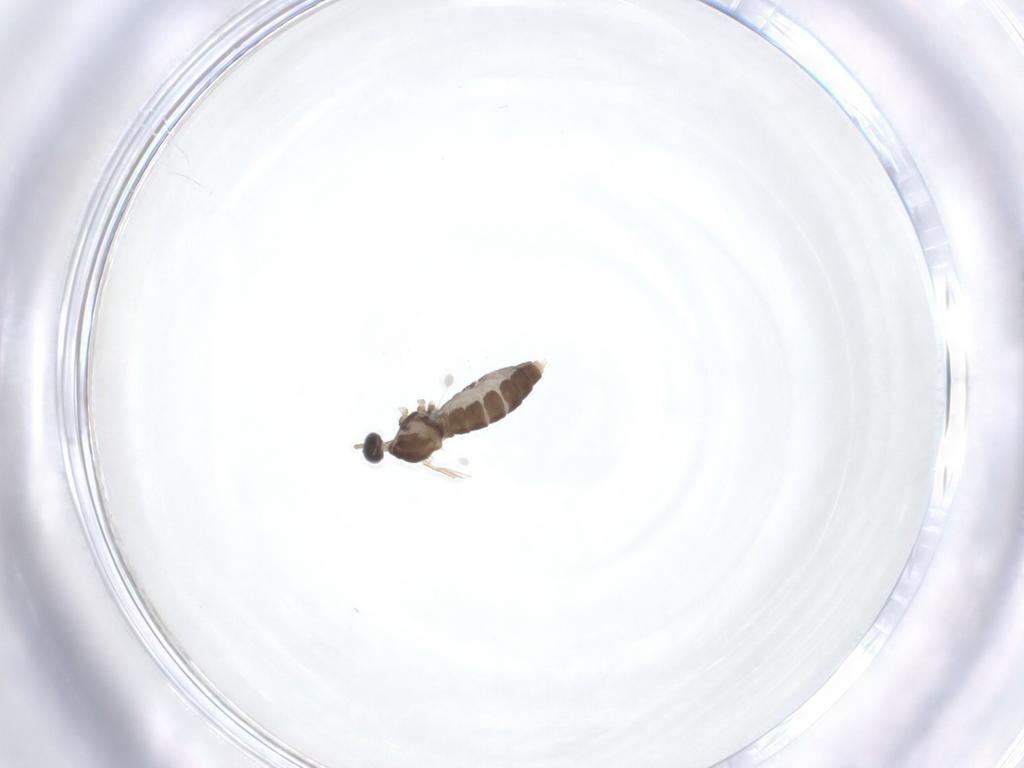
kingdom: Animalia
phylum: Arthropoda
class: Insecta
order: Diptera
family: Cecidomyiidae
